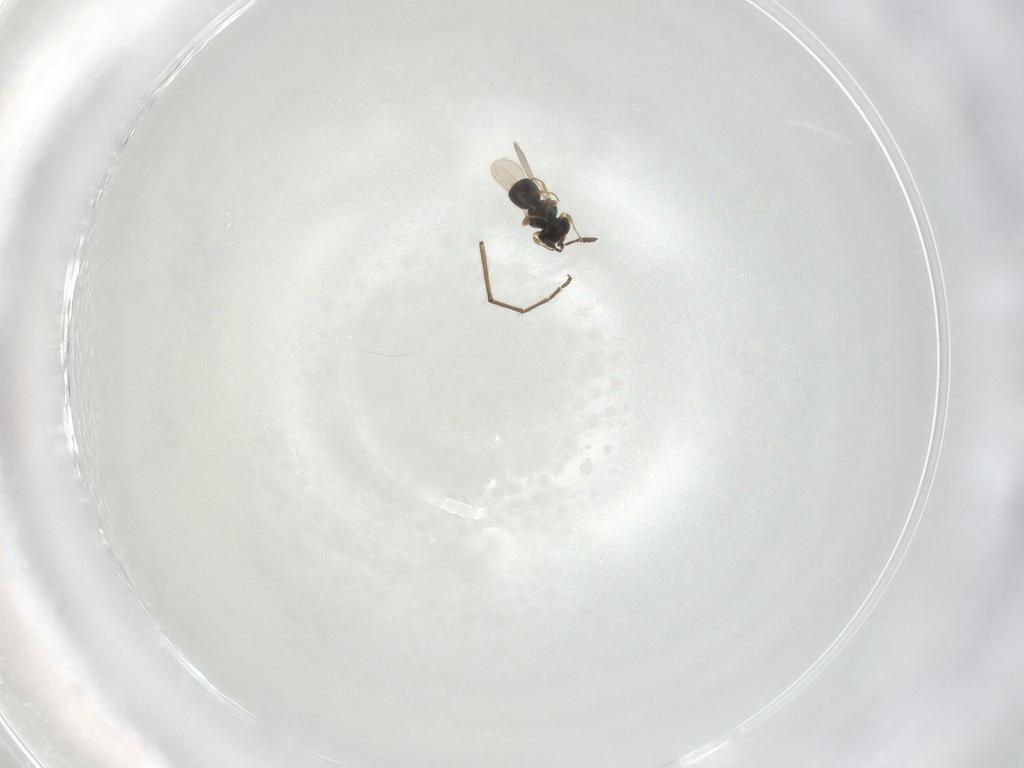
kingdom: Animalia
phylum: Arthropoda
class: Insecta
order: Hymenoptera
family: Scelionidae
